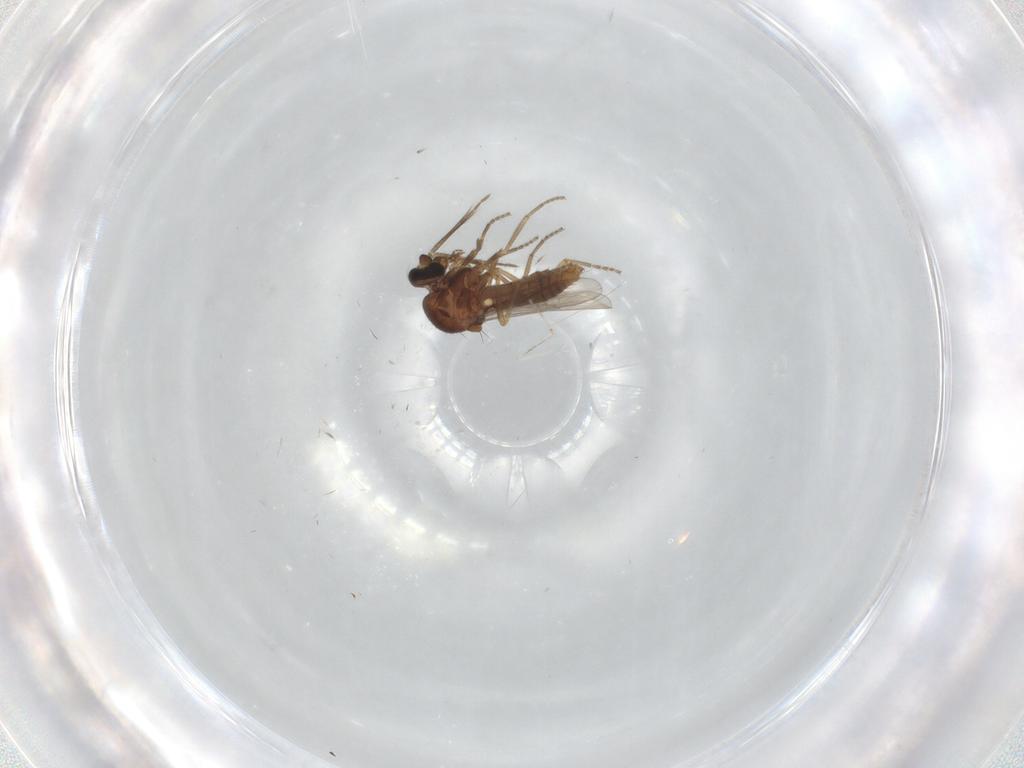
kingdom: Animalia
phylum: Arthropoda
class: Insecta
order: Diptera
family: Ceratopogonidae
